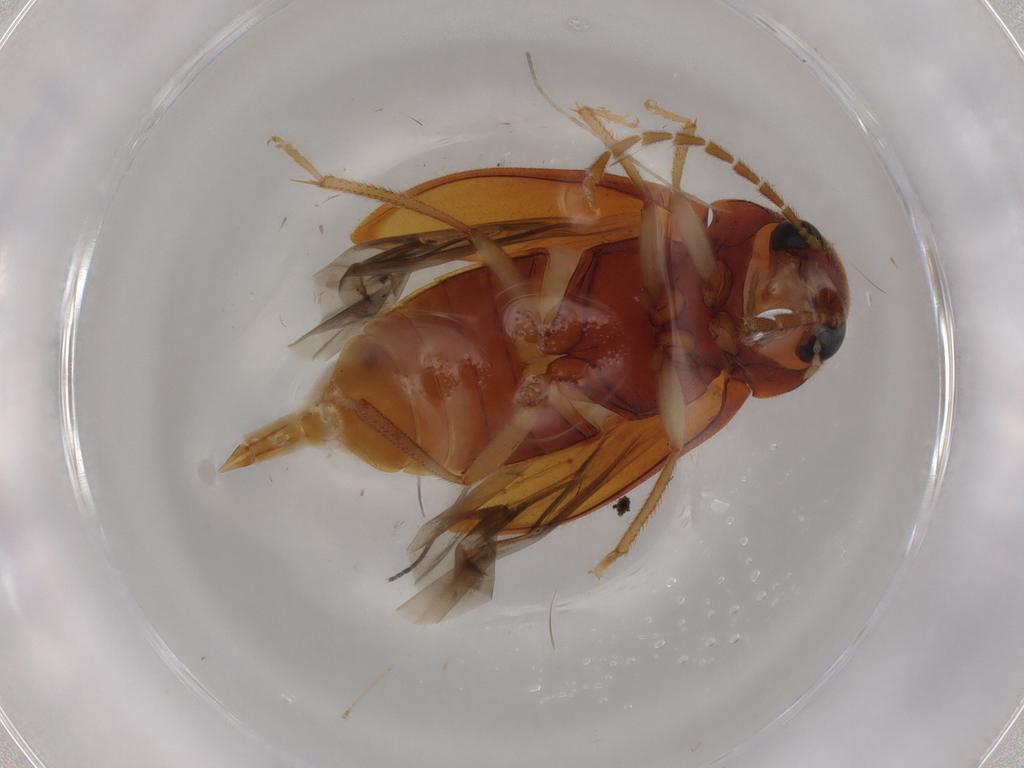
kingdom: Animalia
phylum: Arthropoda
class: Insecta
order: Coleoptera
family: Ptilodactylidae
